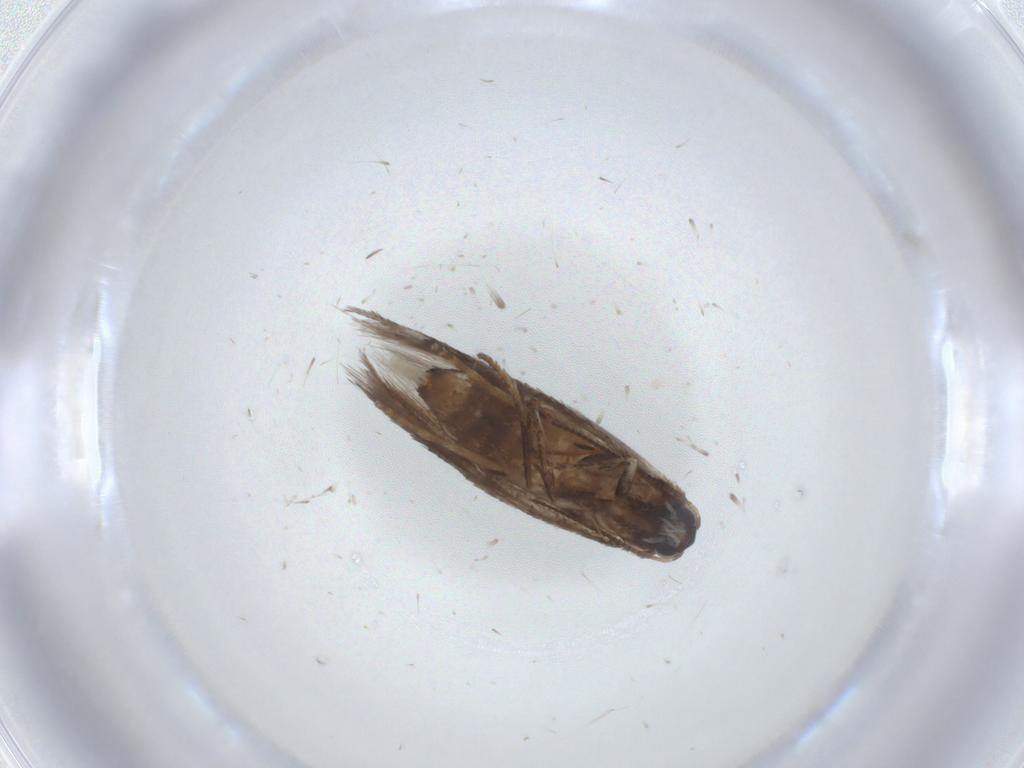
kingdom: Animalia
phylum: Arthropoda
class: Insecta
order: Lepidoptera
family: Nepticulidae
